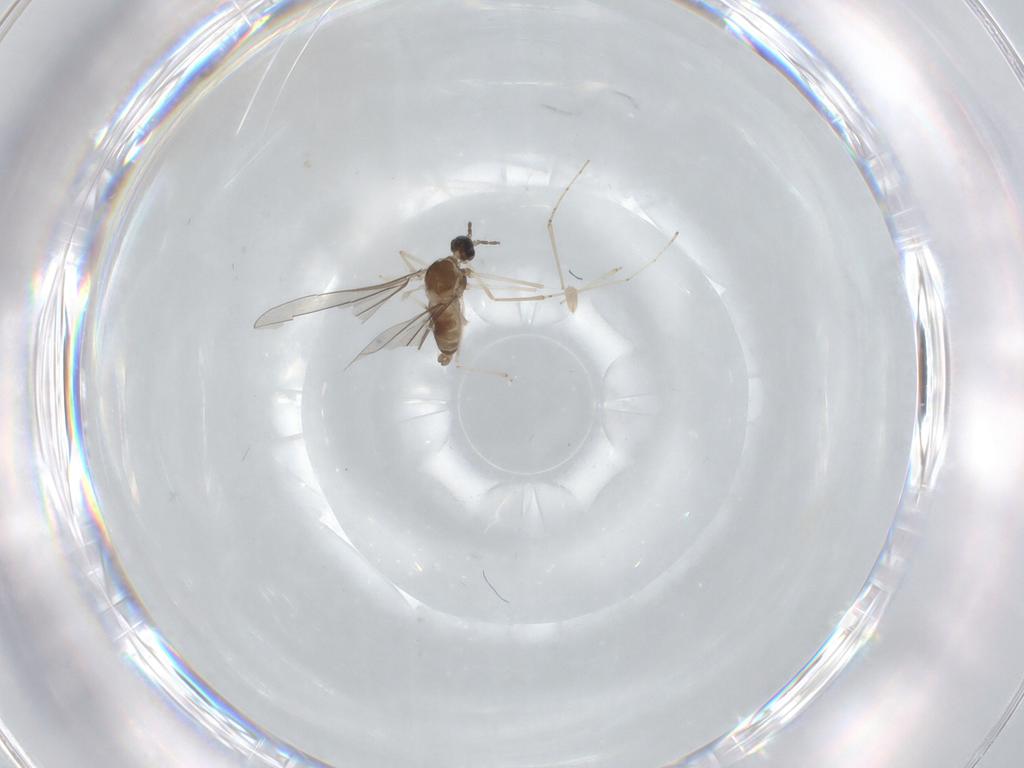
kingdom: Animalia
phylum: Arthropoda
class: Insecta
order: Diptera
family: Cecidomyiidae
